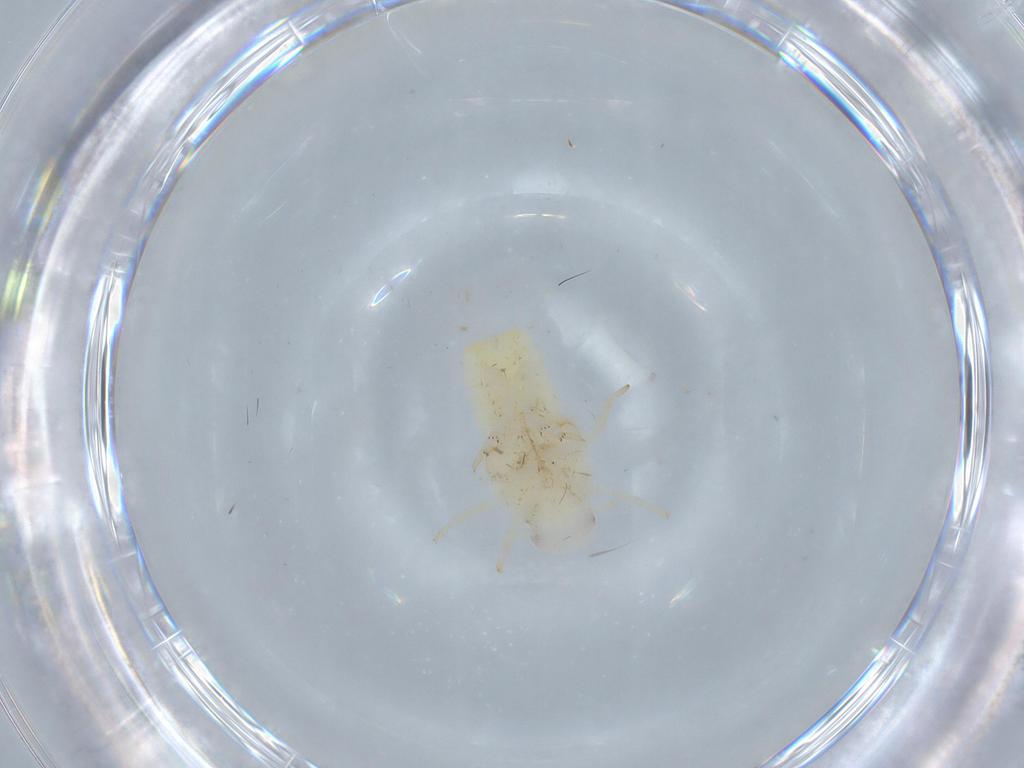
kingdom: Animalia
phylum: Arthropoda
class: Insecta
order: Hemiptera
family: Flatidae
